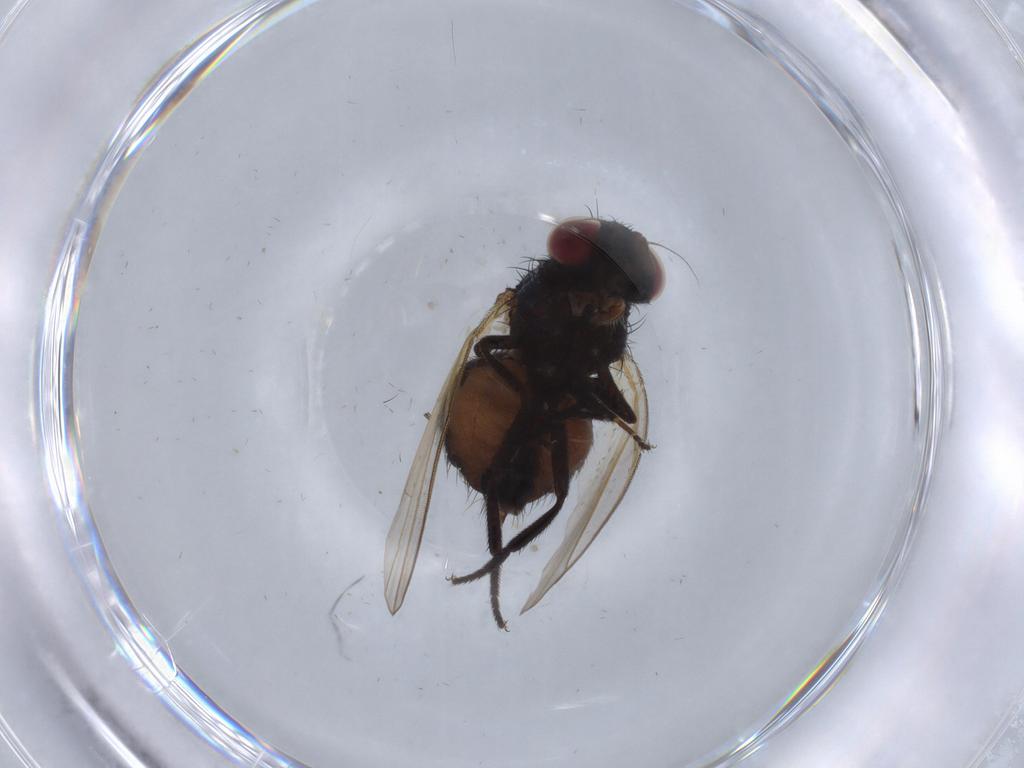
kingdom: Animalia
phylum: Arthropoda
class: Insecta
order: Diptera
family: Milichiidae
